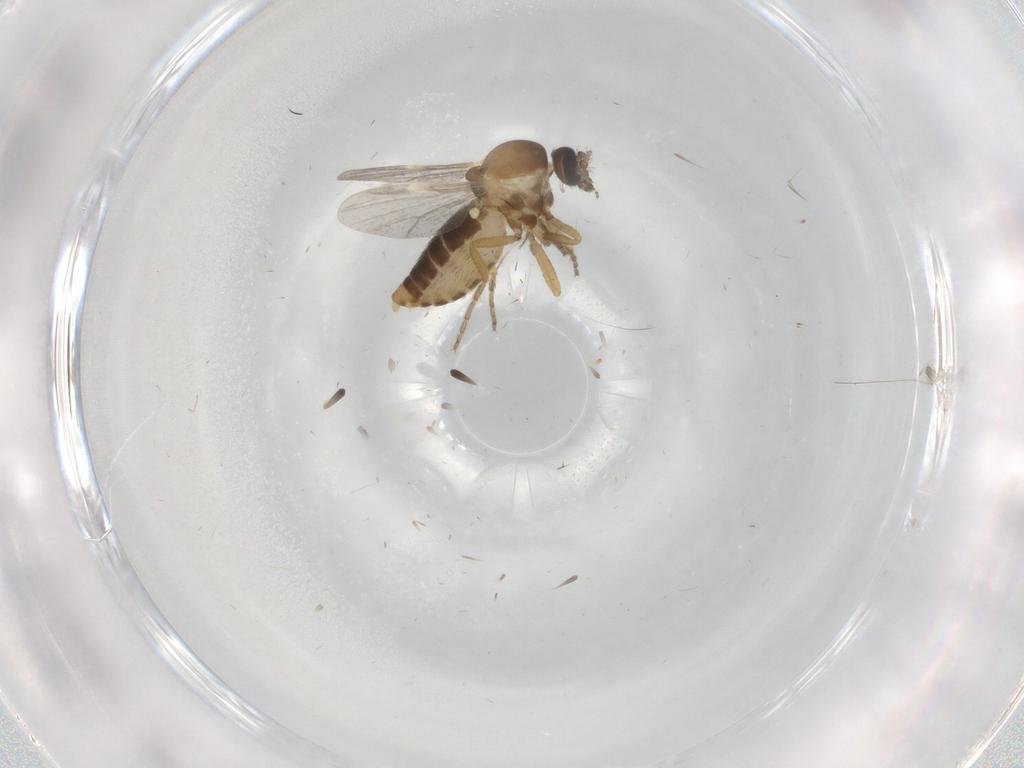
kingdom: Animalia
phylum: Arthropoda
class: Insecta
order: Diptera
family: Ceratopogonidae
